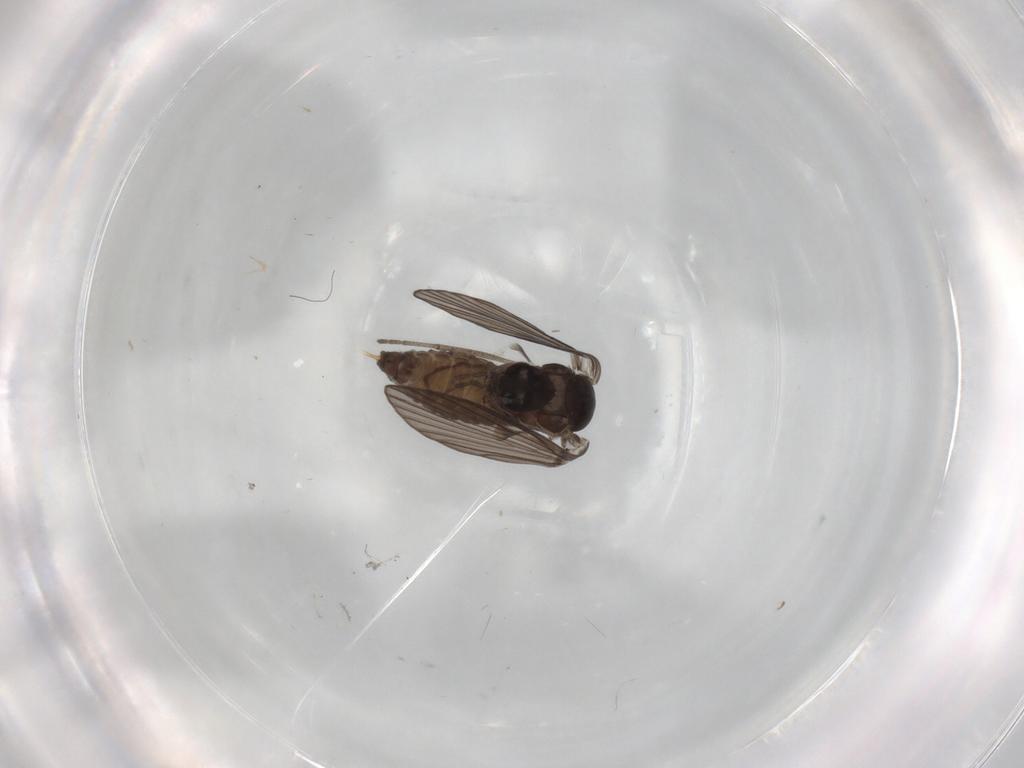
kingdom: Animalia
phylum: Arthropoda
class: Insecta
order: Diptera
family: Psychodidae
